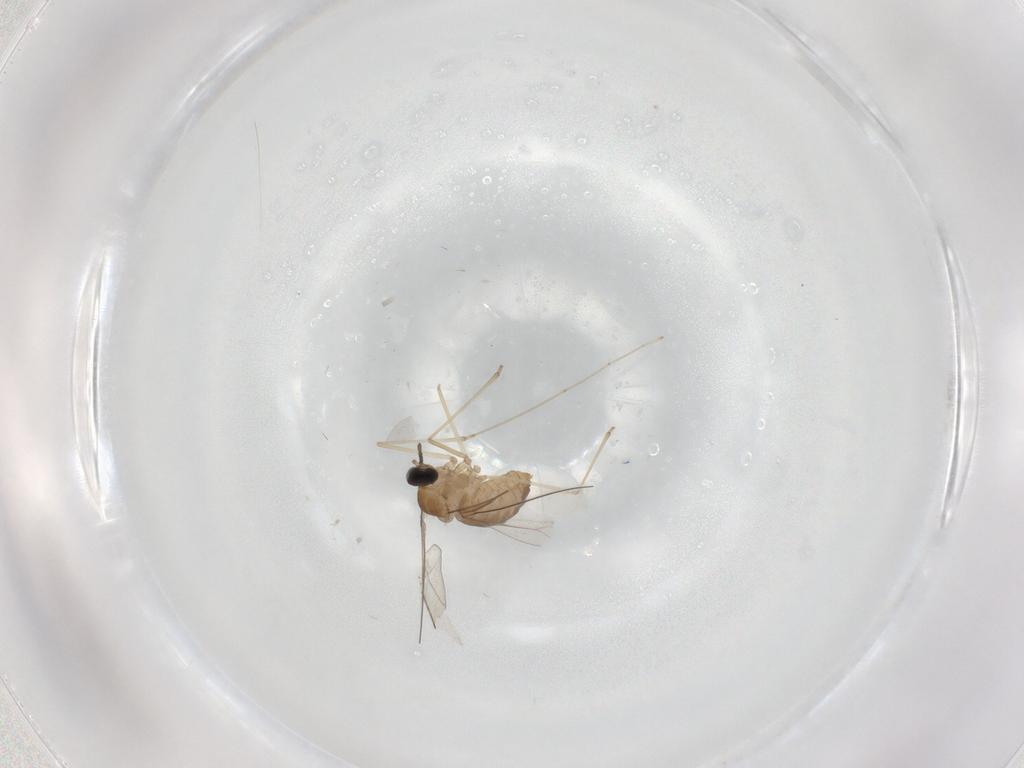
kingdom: Animalia
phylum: Arthropoda
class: Insecta
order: Diptera
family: Cecidomyiidae
